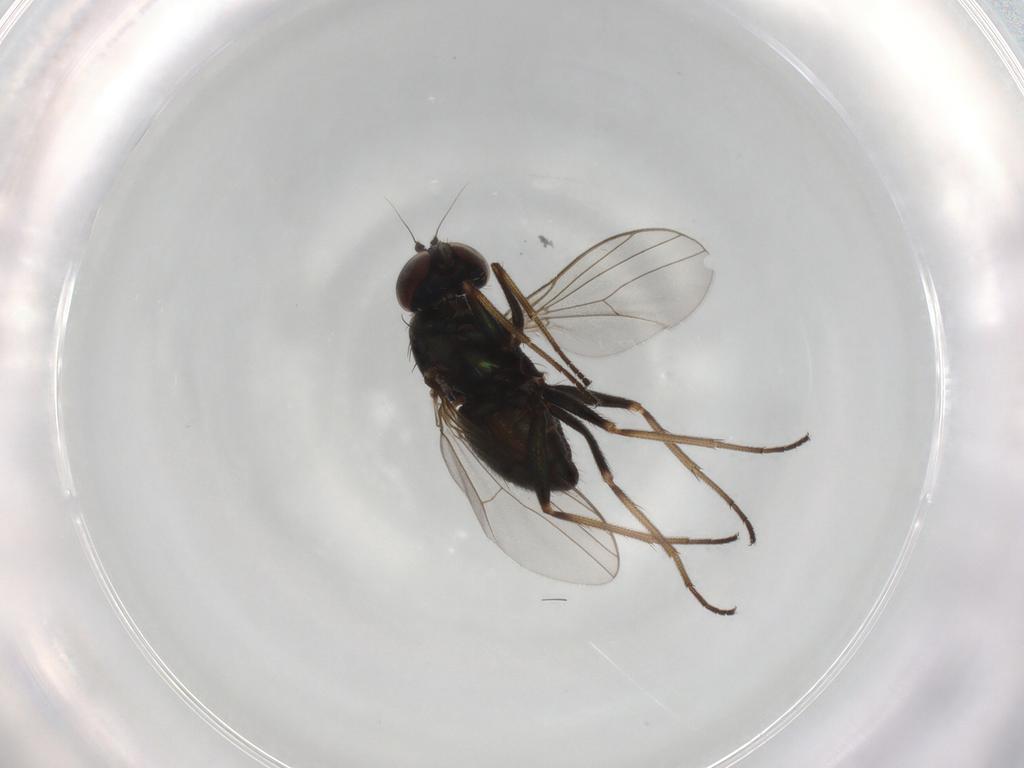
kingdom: Animalia
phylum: Arthropoda
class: Insecta
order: Diptera
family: Dolichopodidae
